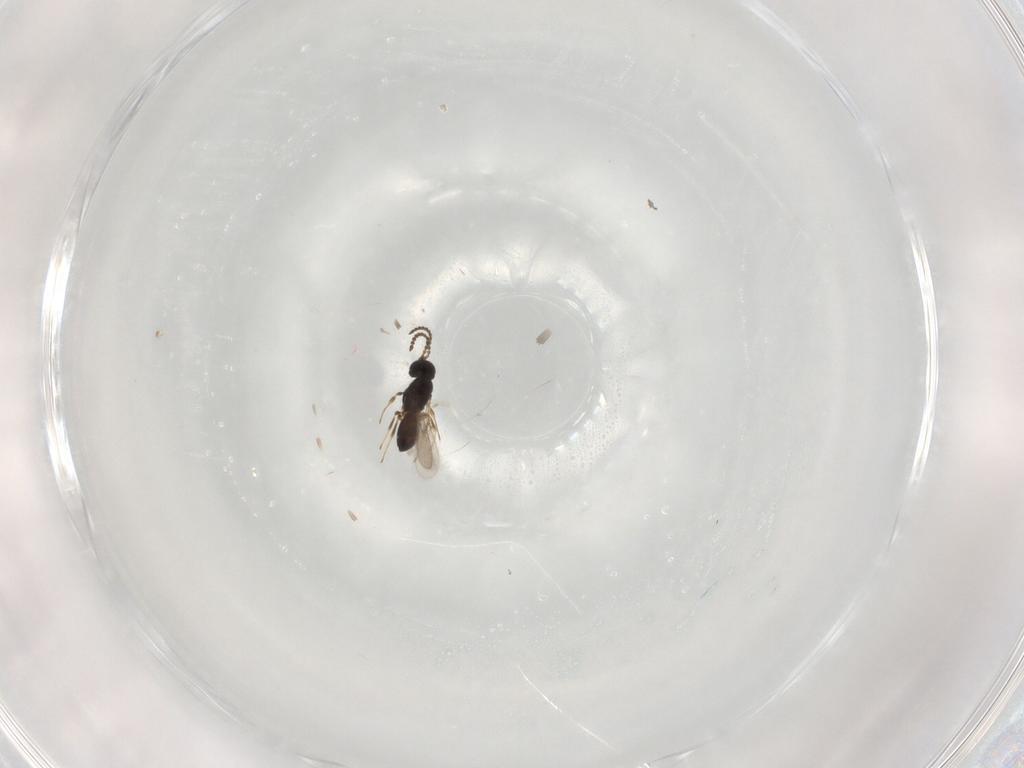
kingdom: Animalia
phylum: Arthropoda
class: Insecta
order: Hymenoptera
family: Scelionidae
